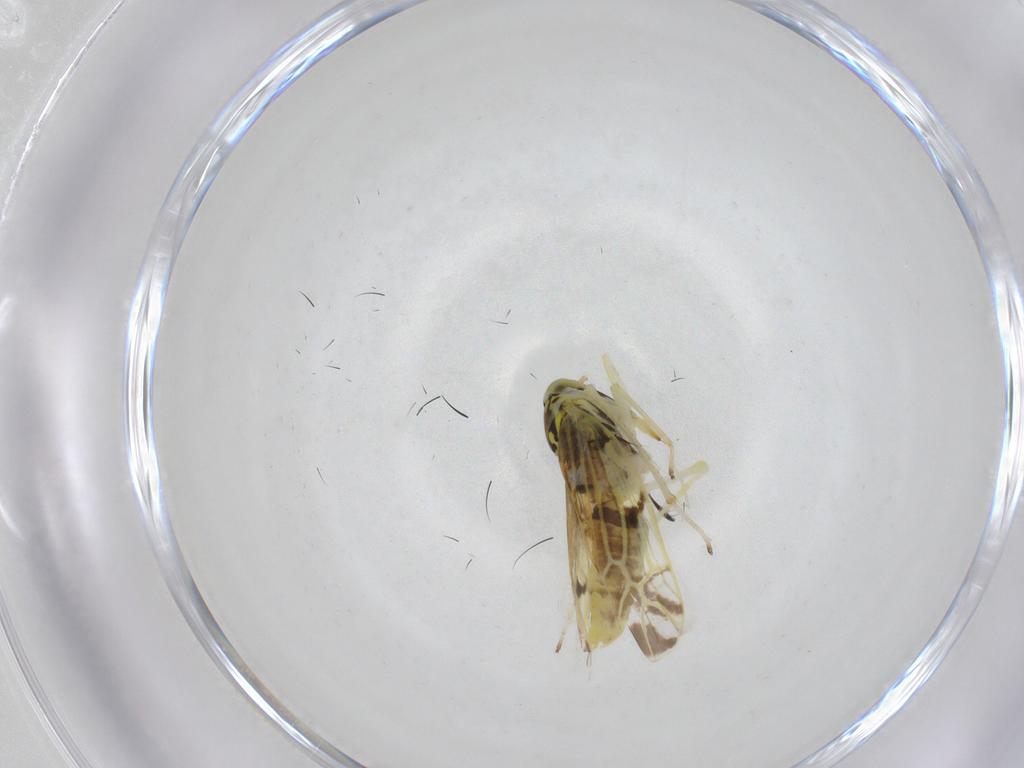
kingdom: Animalia
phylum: Arthropoda
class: Insecta
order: Hemiptera
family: Cicadellidae
